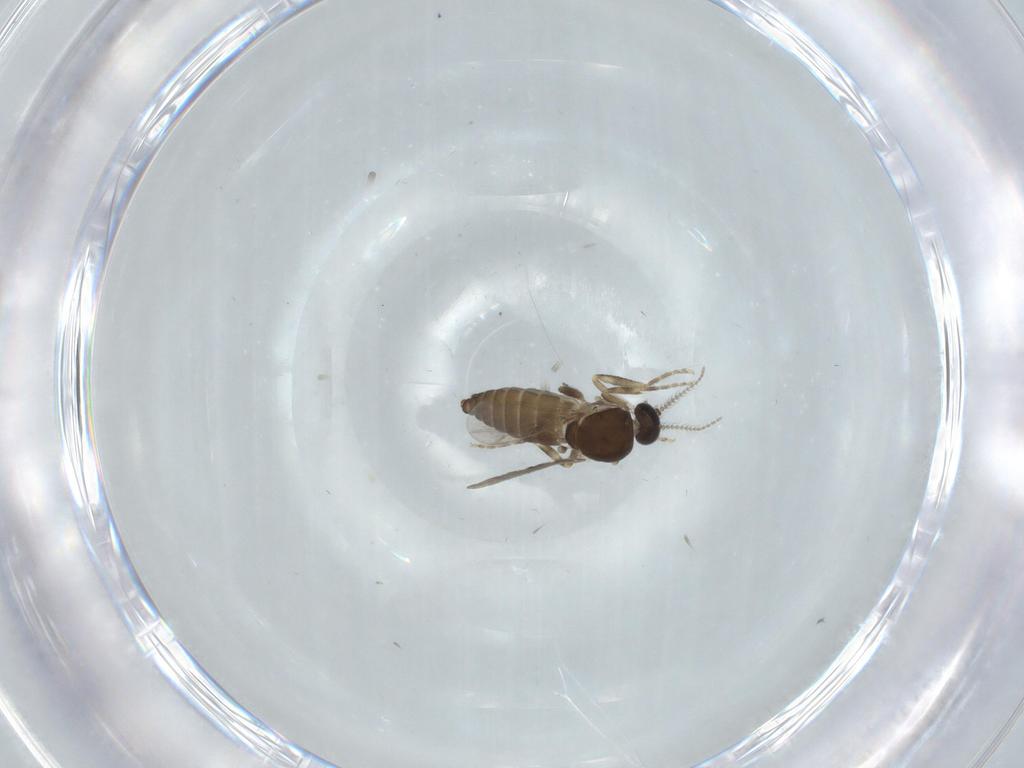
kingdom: Animalia
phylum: Arthropoda
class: Insecta
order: Diptera
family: Ceratopogonidae
